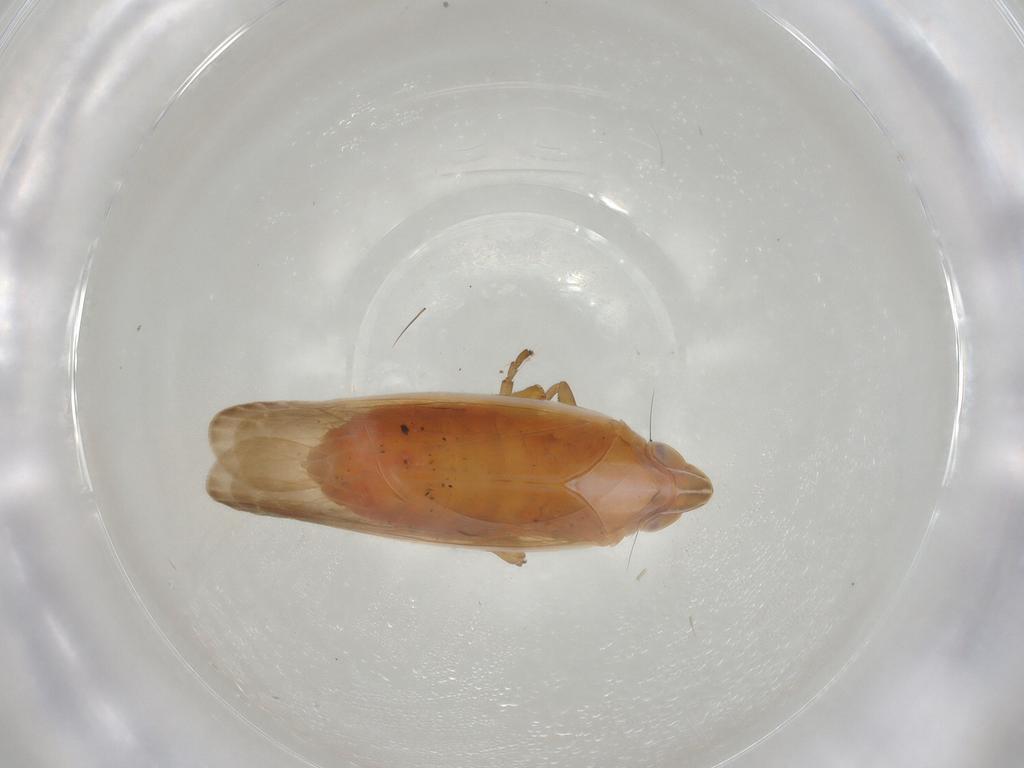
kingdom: Animalia
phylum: Arthropoda
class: Insecta
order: Hemiptera
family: Achilidae
